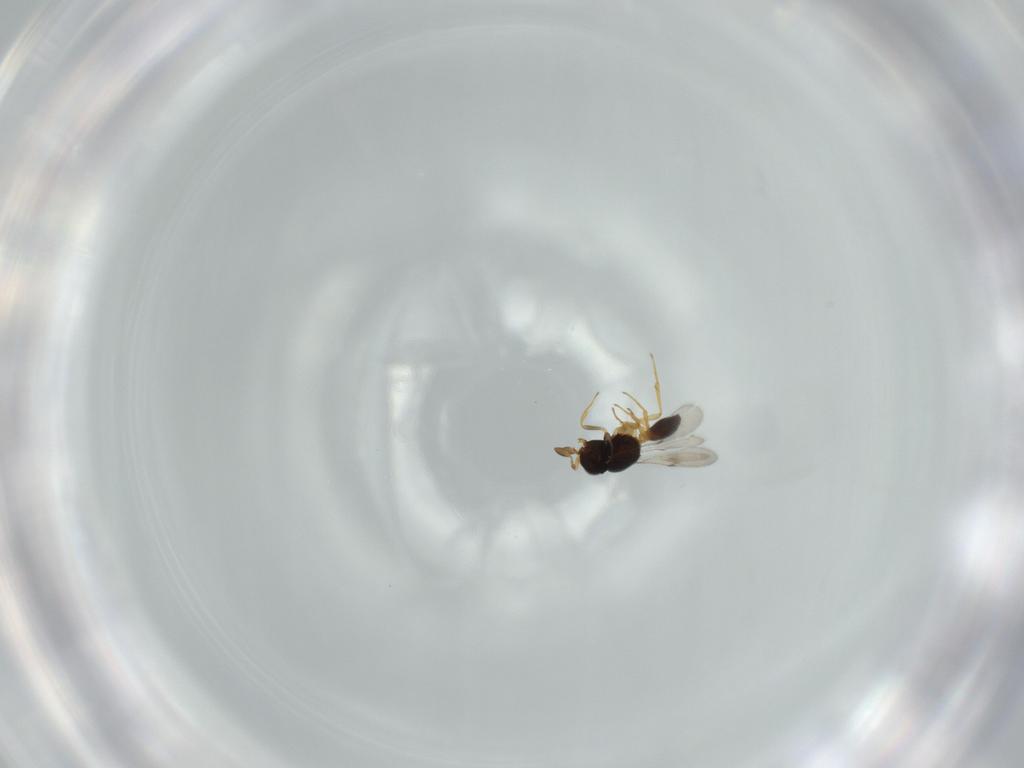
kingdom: Animalia
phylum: Arthropoda
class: Insecta
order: Hymenoptera
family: Scelionidae
